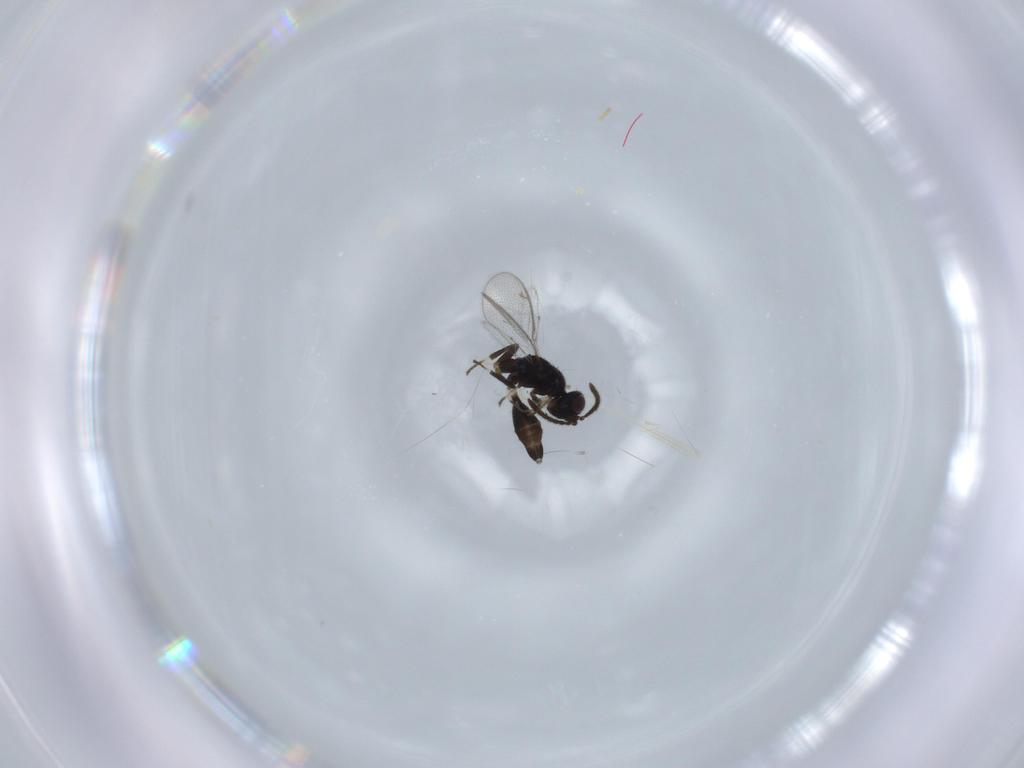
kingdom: Animalia
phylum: Arthropoda
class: Insecta
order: Hymenoptera
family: Eupelmidae
